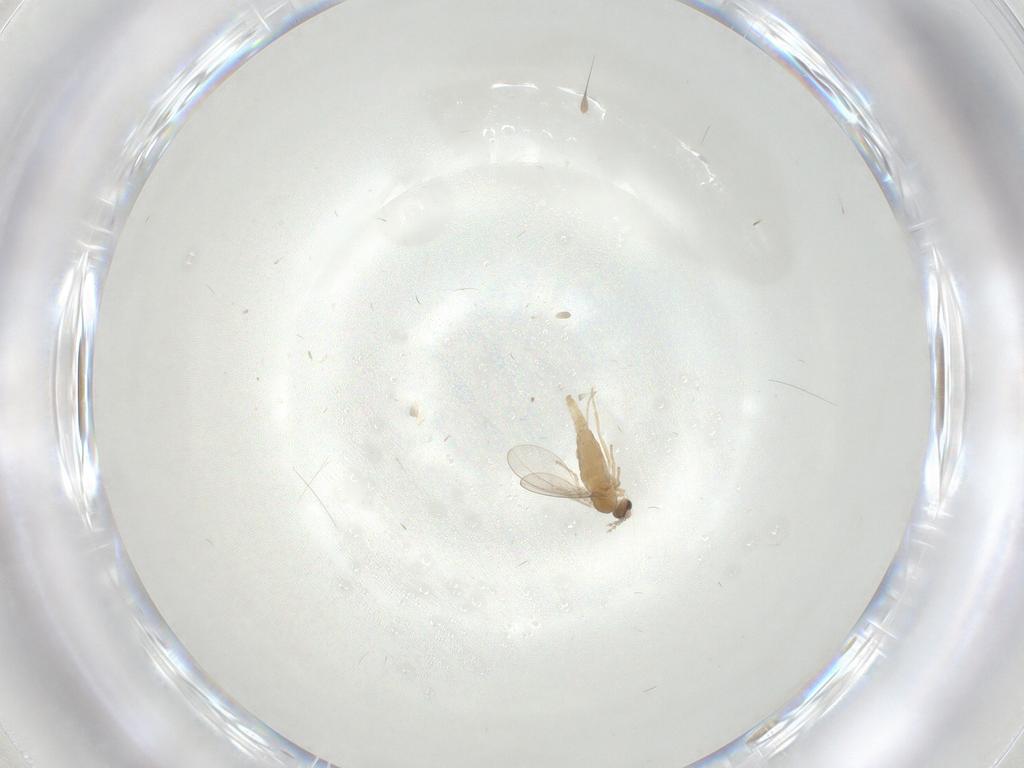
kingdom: Animalia
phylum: Arthropoda
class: Insecta
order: Diptera
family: Cecidomyiidae
